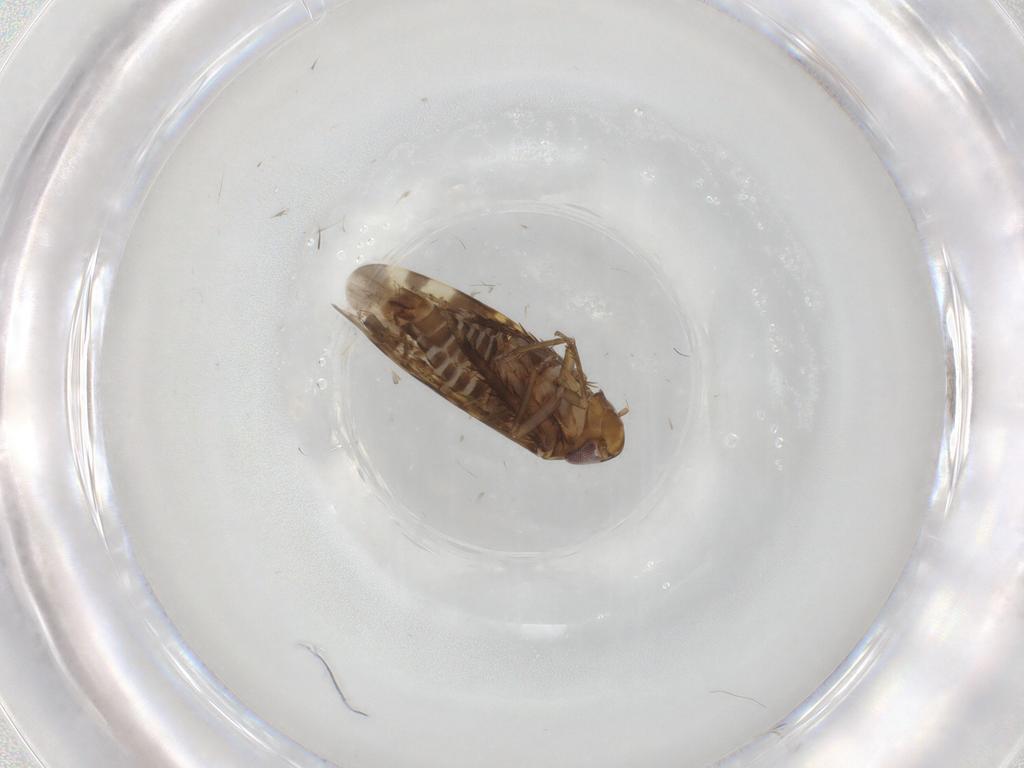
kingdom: Animalia
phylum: Arthropoda
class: Insecta
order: Hemiptera
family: Cicadellidae
